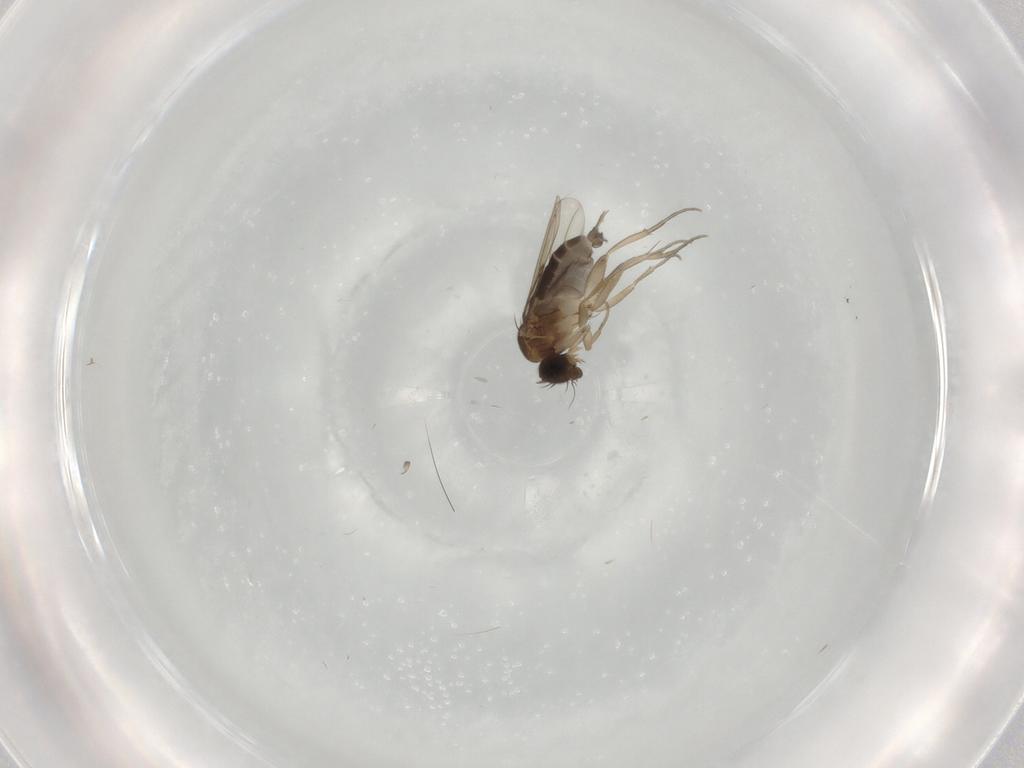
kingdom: Animalia
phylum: Arthropoda
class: Insecta
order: Diptera
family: Phoridae
